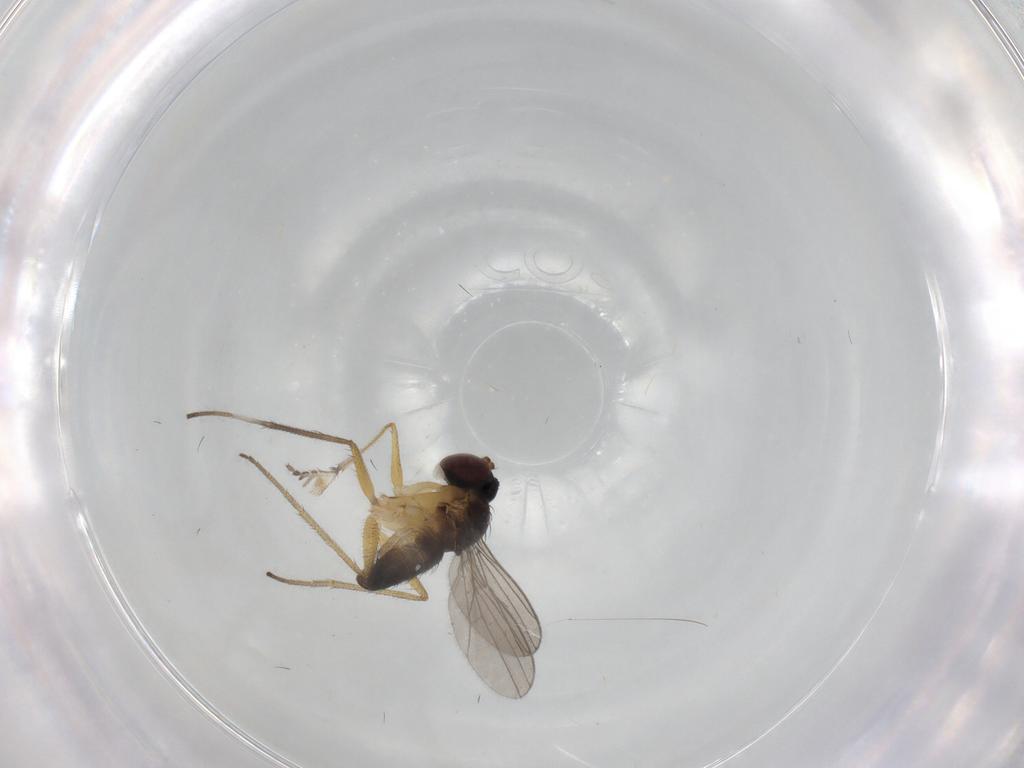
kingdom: Animalia
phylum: Arthropoda
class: Insecta
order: Diptera
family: Dolichopodidae
